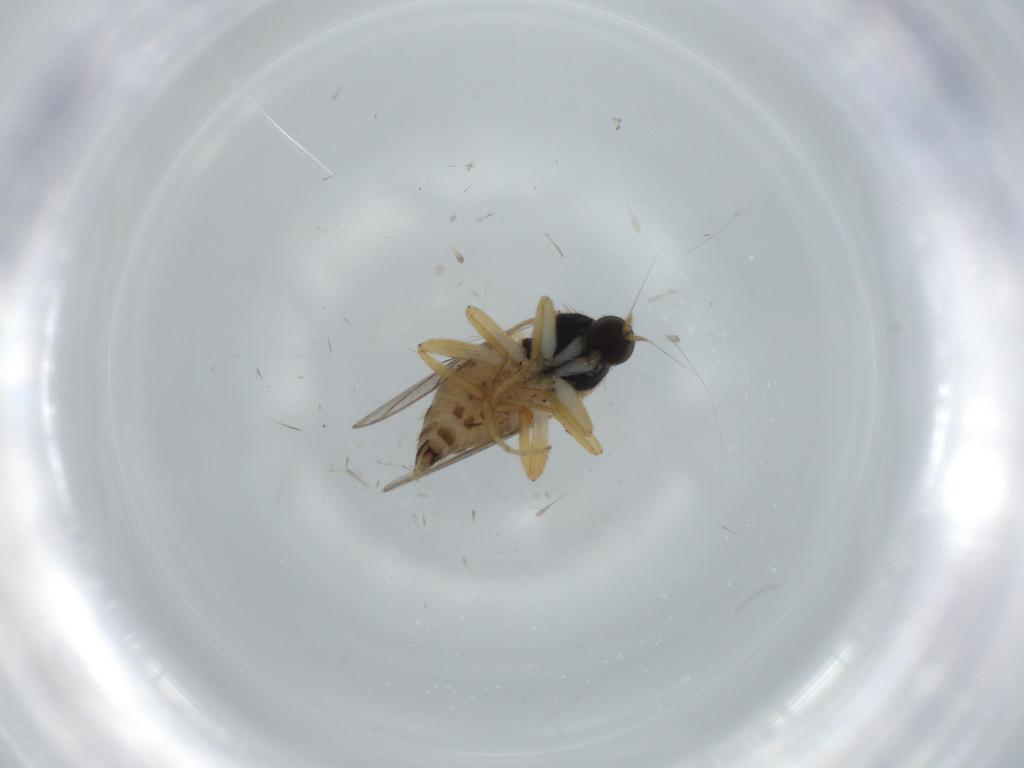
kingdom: Animalia
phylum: Arthropoda
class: Insecta
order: Diptera
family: Hybotidae
